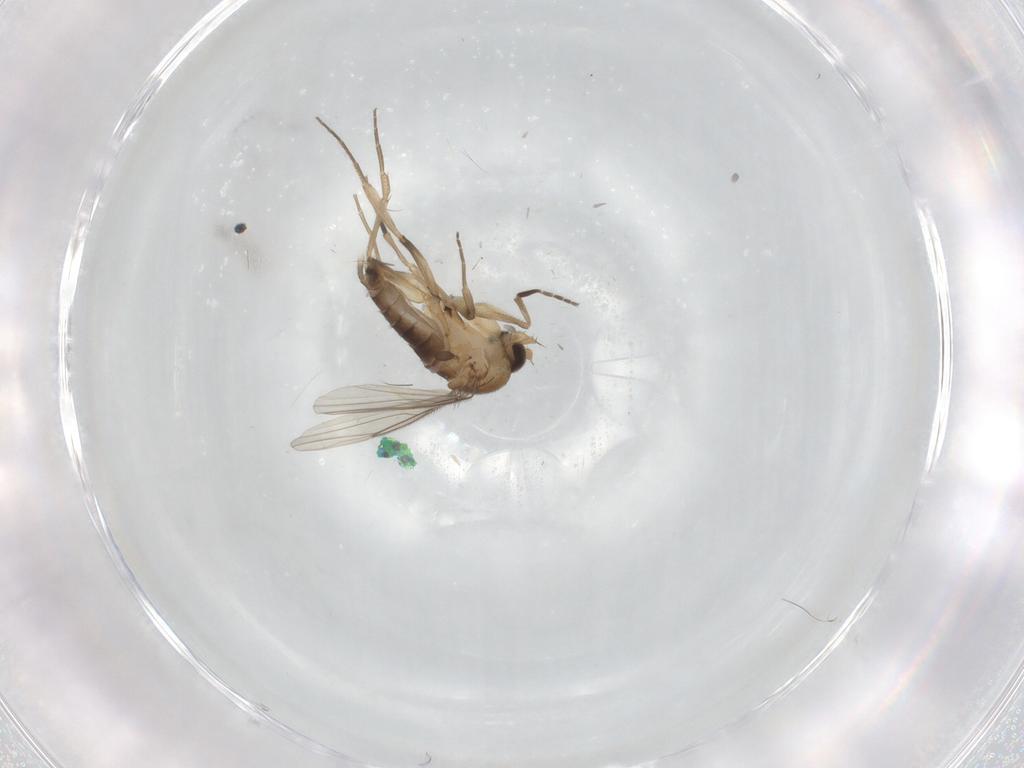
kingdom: Animalia
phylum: Arthropoda
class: Insecta
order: Diptera
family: Phoridae
